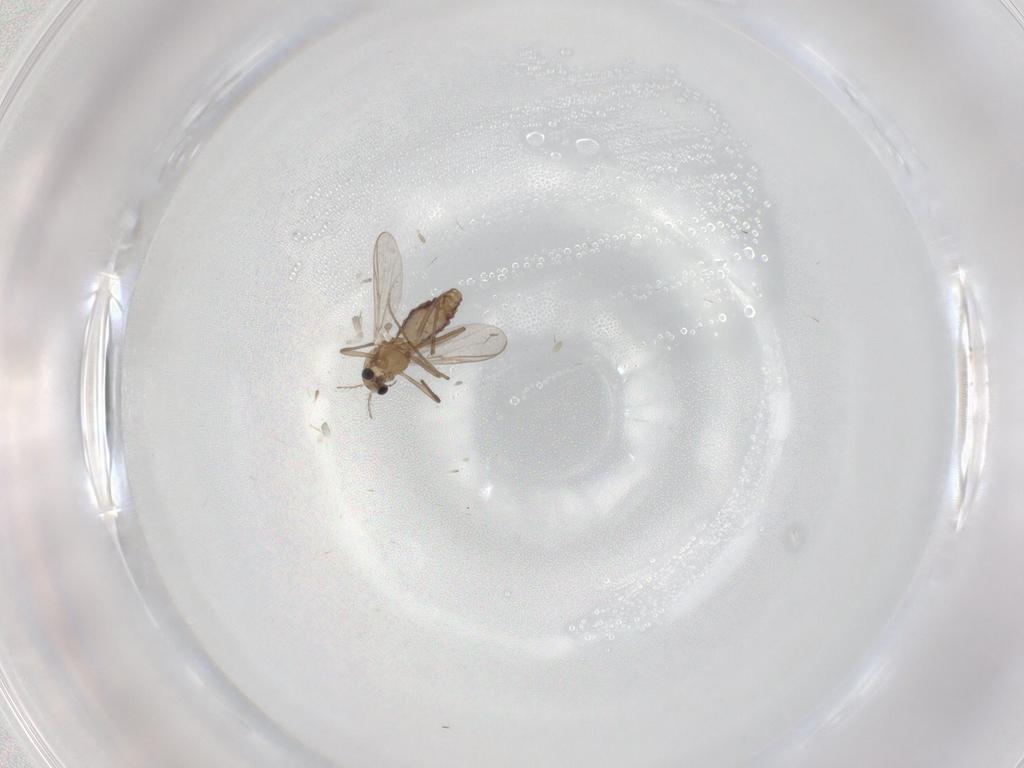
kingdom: Animalia
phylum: Arthropoda
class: Insecta
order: Diptera
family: Chironomidae
